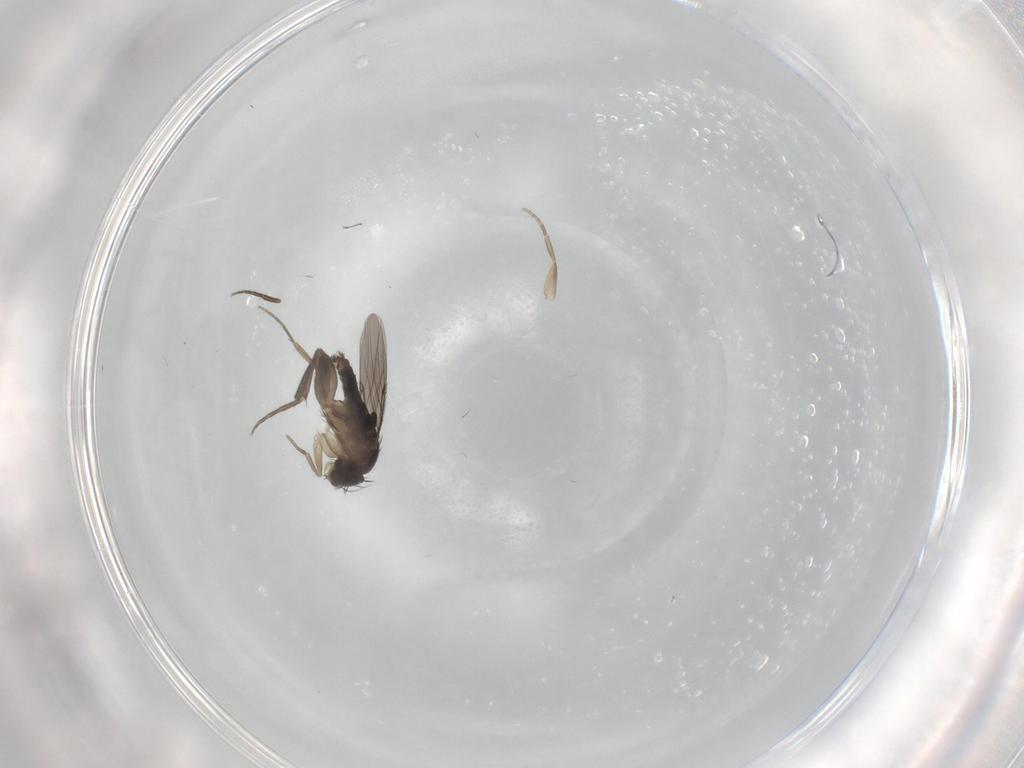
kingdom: Animalia
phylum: Arthropoda
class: Insecta
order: Diptera
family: Phoridae
